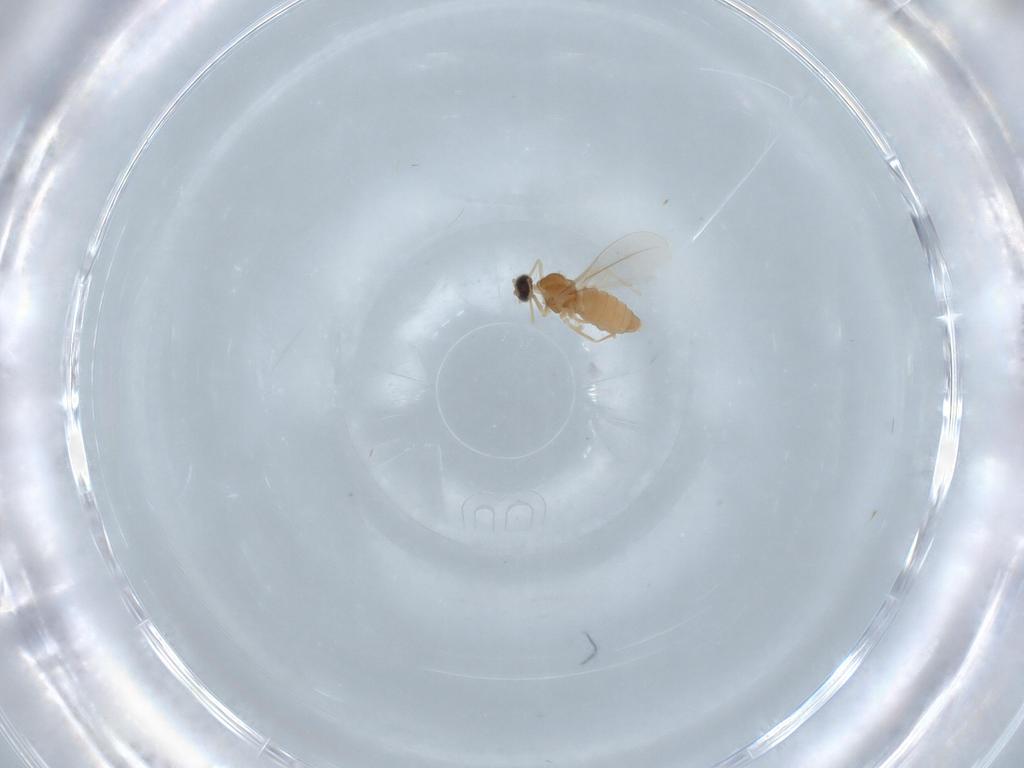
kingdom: Animalia
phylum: Arthropoda
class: Insecta
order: Diptera
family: Cecidomyiidae
